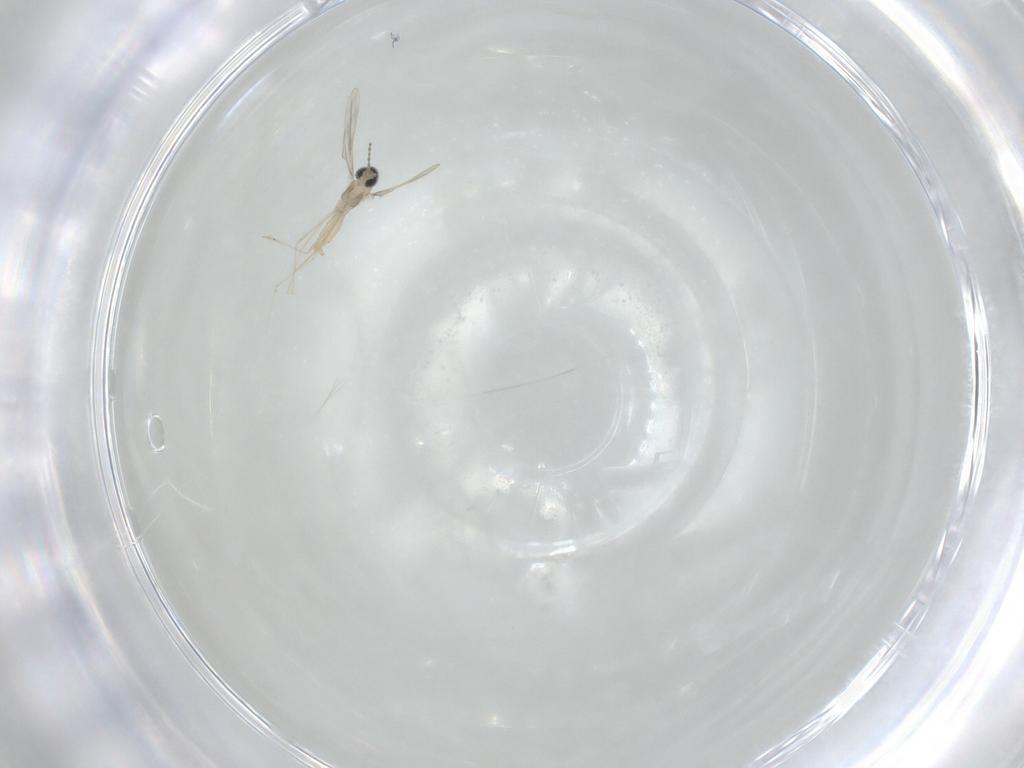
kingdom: Animalia
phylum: Arthropoda
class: Insecta
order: Diptera
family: Cecidomyiidae
